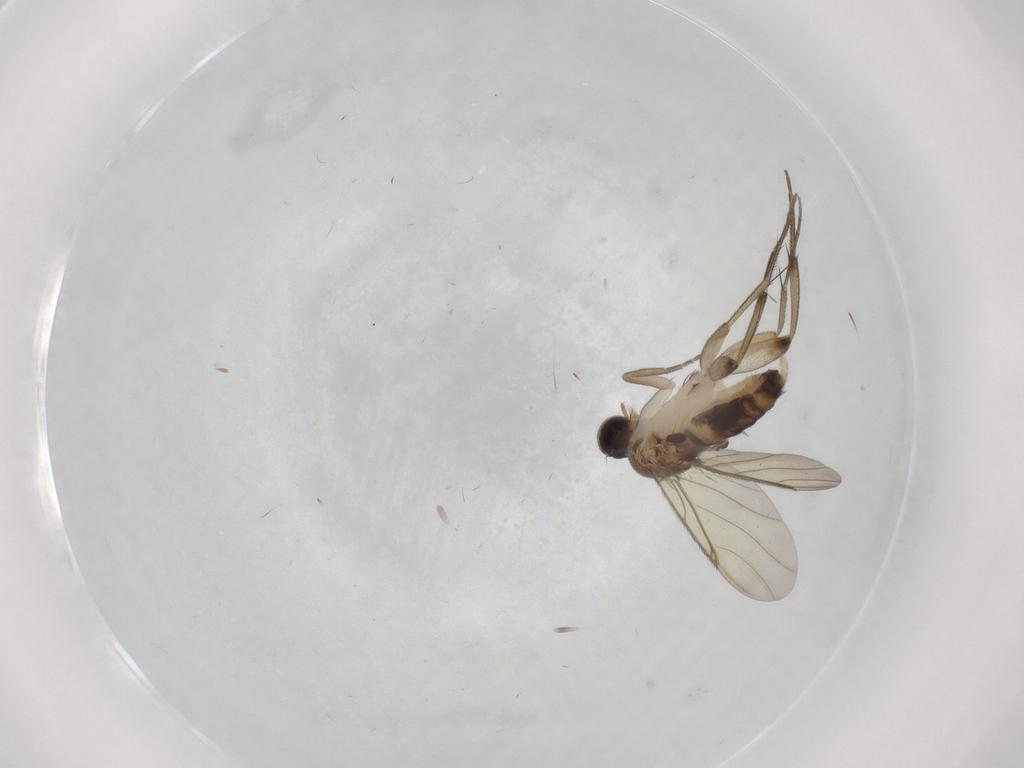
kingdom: Animalia
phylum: Arthropoda
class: Insecta
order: Diptera
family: Phoridae
